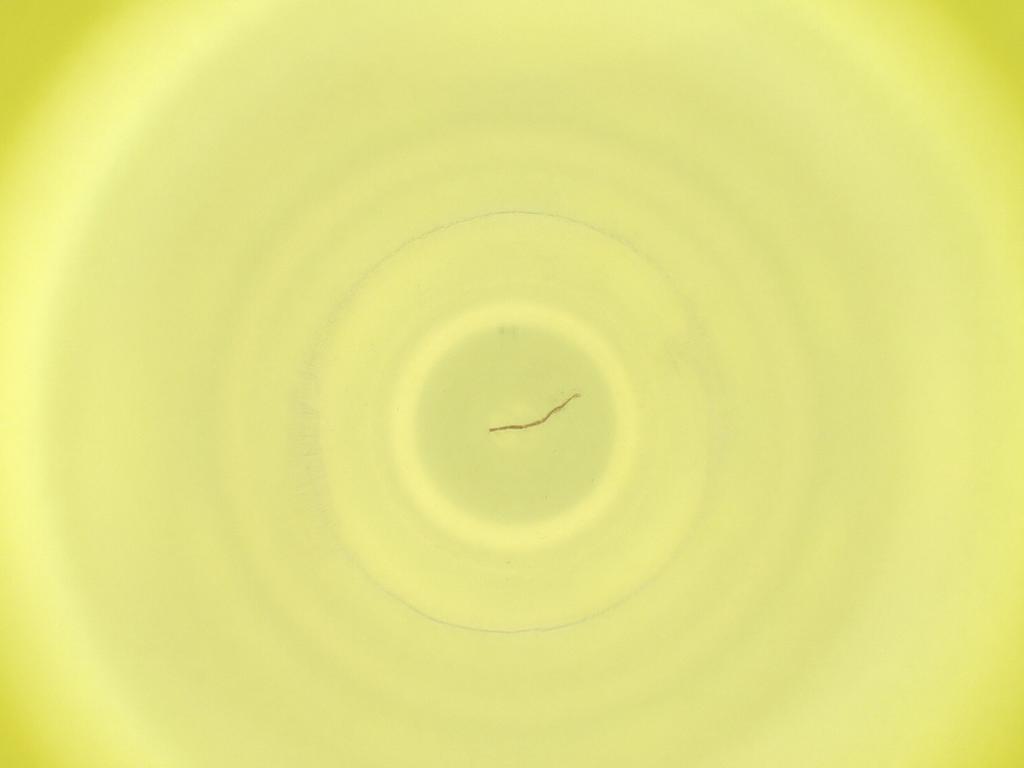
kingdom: Animalia
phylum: Arthropoda
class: Insecta
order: Diptera
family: Cecidomyiidae
